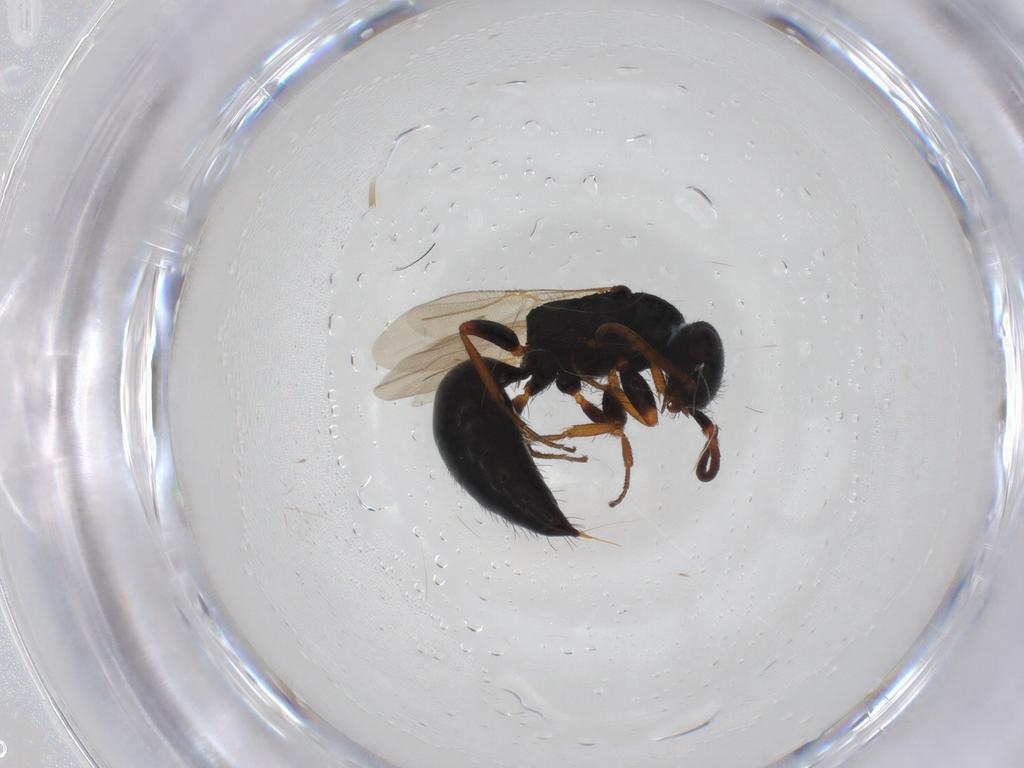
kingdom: Animalia
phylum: Arthropoda
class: Insecta
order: Hymenoptera
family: Bethylidae
